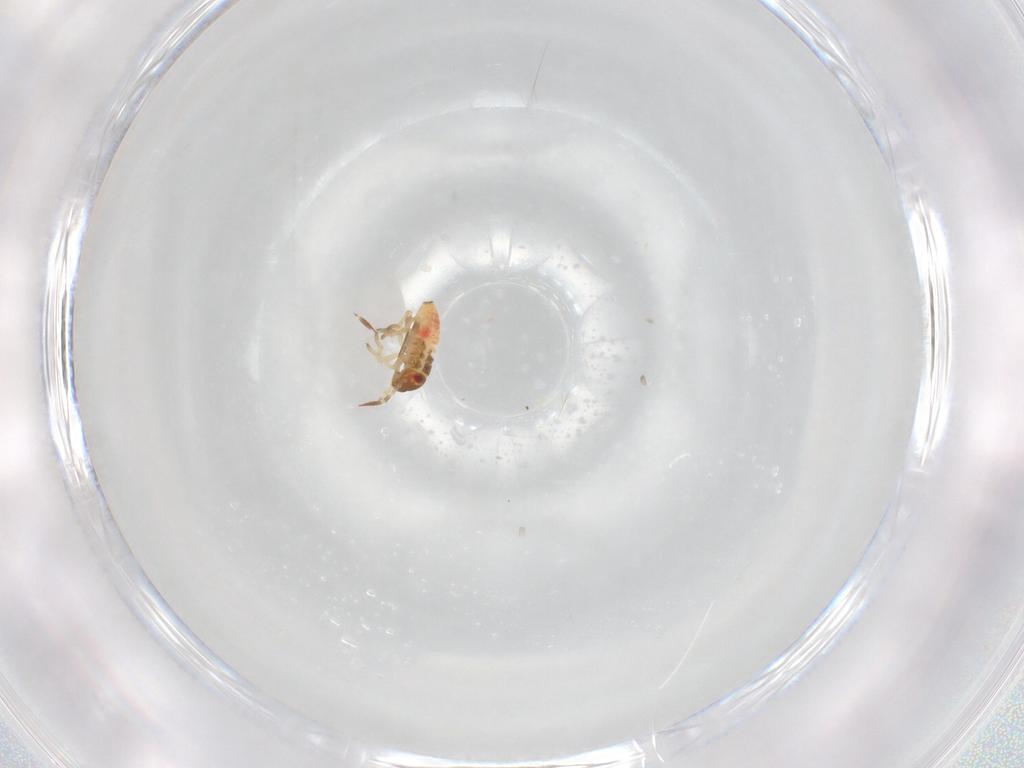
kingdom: Animalia
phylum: Arthropoda
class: Insecta
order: Hemiptera
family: Lygaeidae
